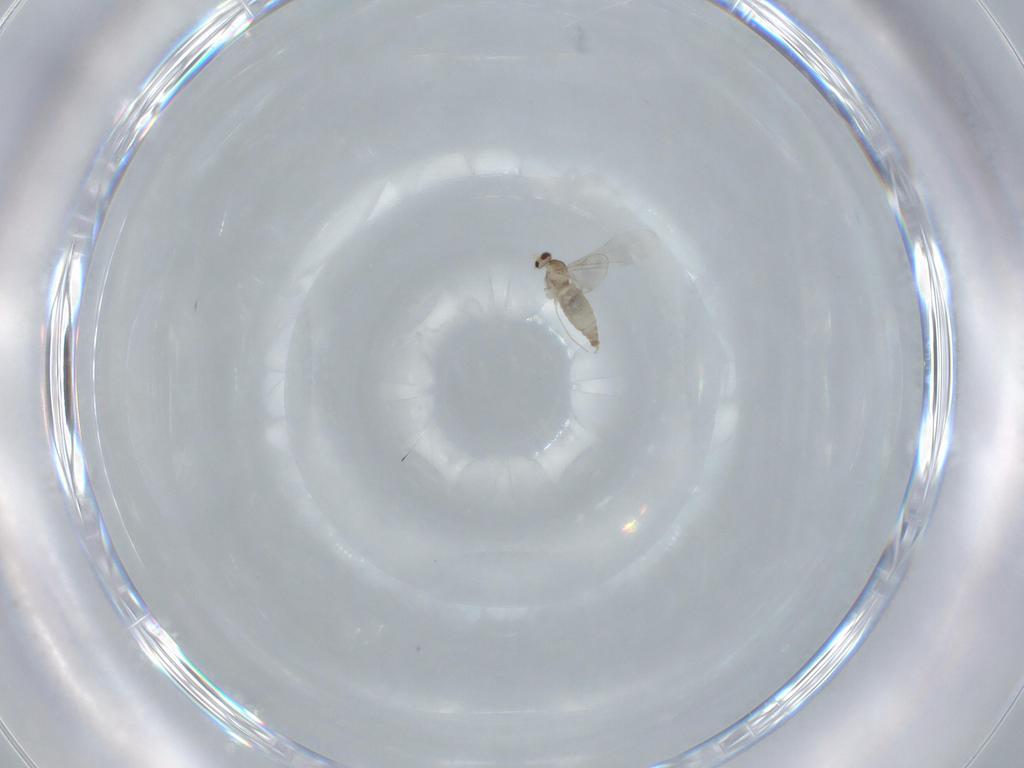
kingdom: Animalia
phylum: Arthropoda
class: Insecta
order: Diptera
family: Cecidomyiidae
